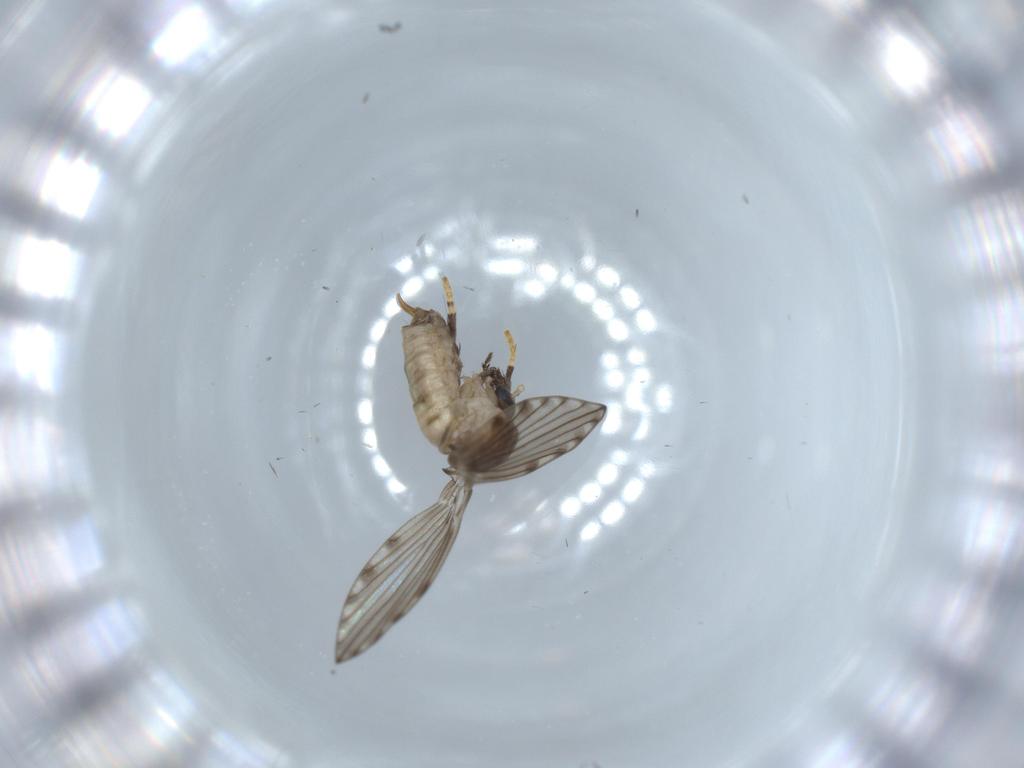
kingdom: Animalia
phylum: Arthropoda
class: Insecta
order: Diptera
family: Psychodidae
